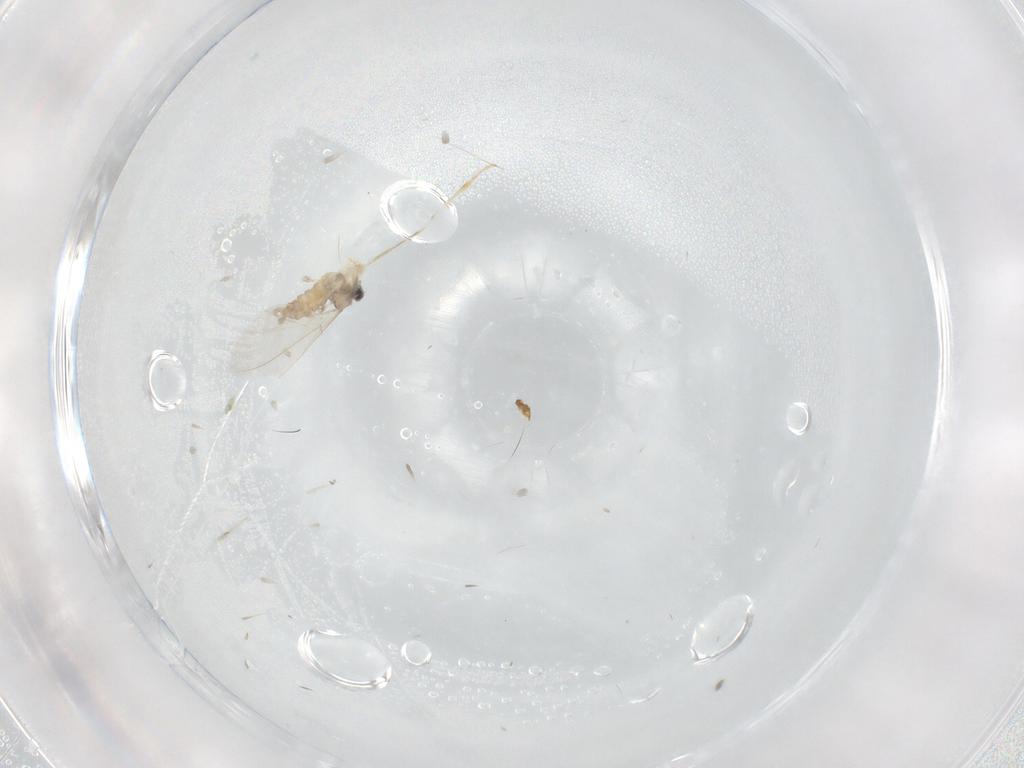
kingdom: Animalia
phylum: Arthropoda
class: Insecta
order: Diptera
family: Cecidomyiidae
